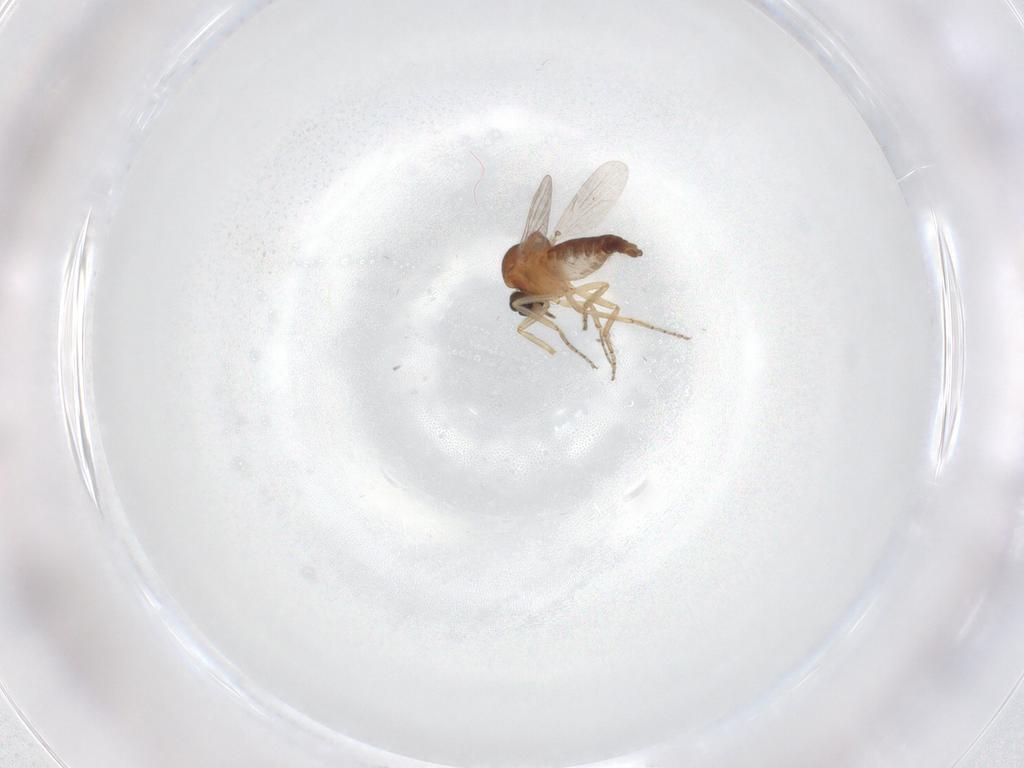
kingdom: Animalia
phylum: Arthropoda
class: Insecta
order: Diptera
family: Ceratopogonidae
